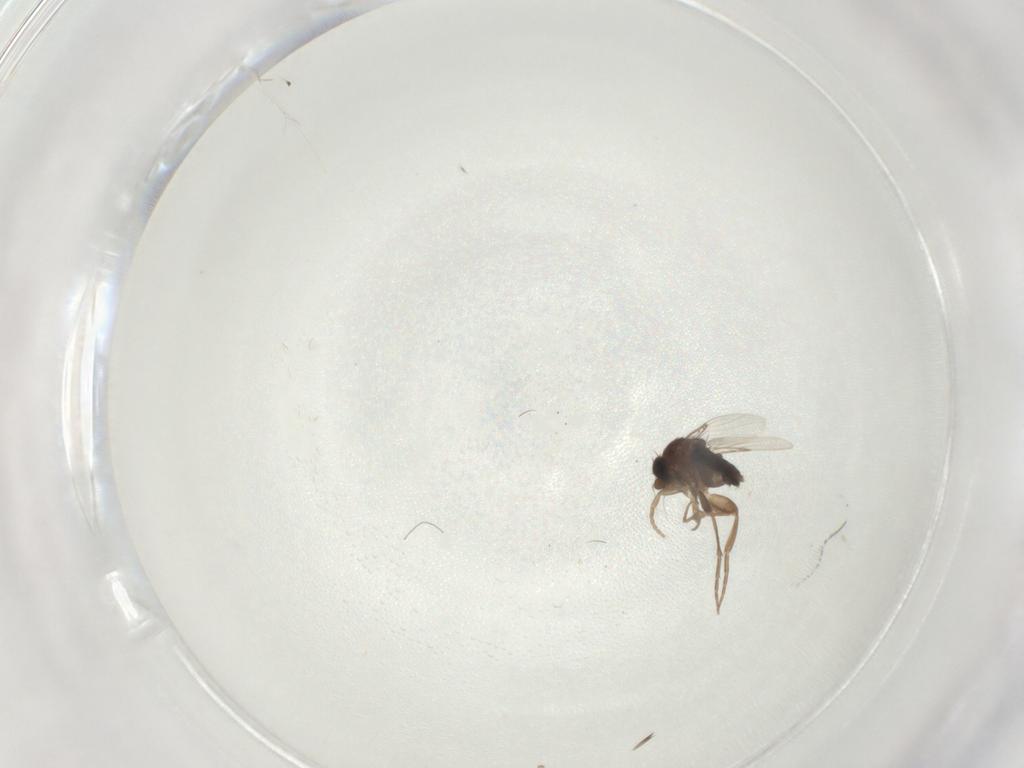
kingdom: Animalia
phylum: Arthropoda
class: Insecta
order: Diptera
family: Phoridae
